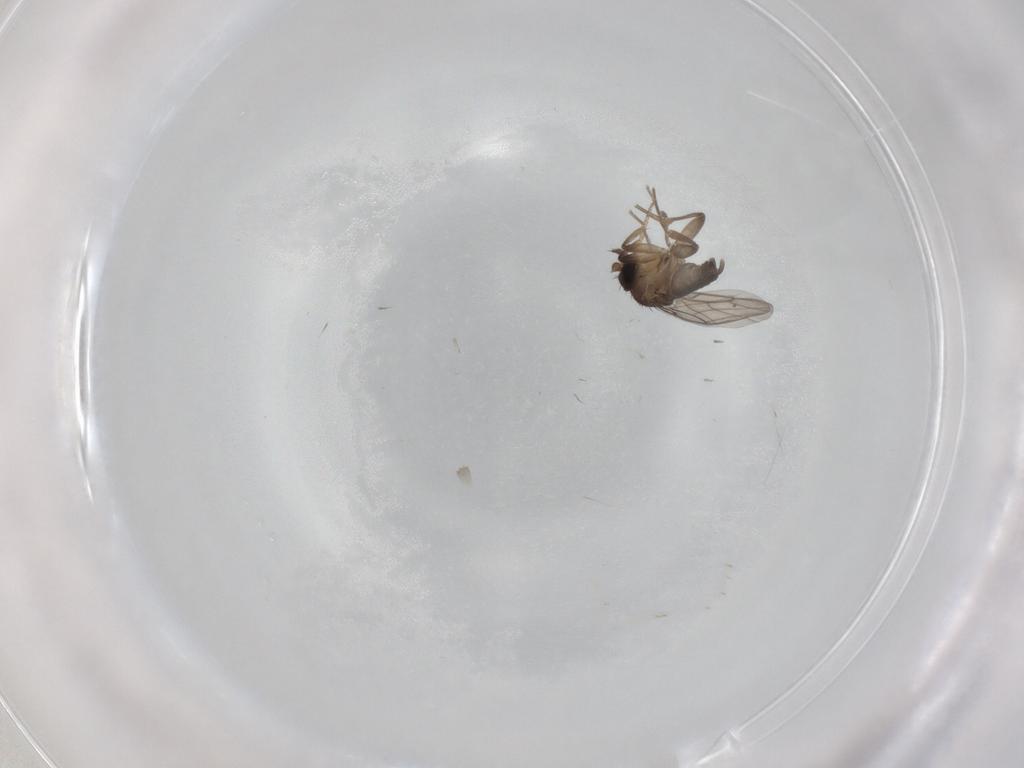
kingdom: Animalia
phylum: Arthropoda
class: Insecta
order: Diptera
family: Phoridae
